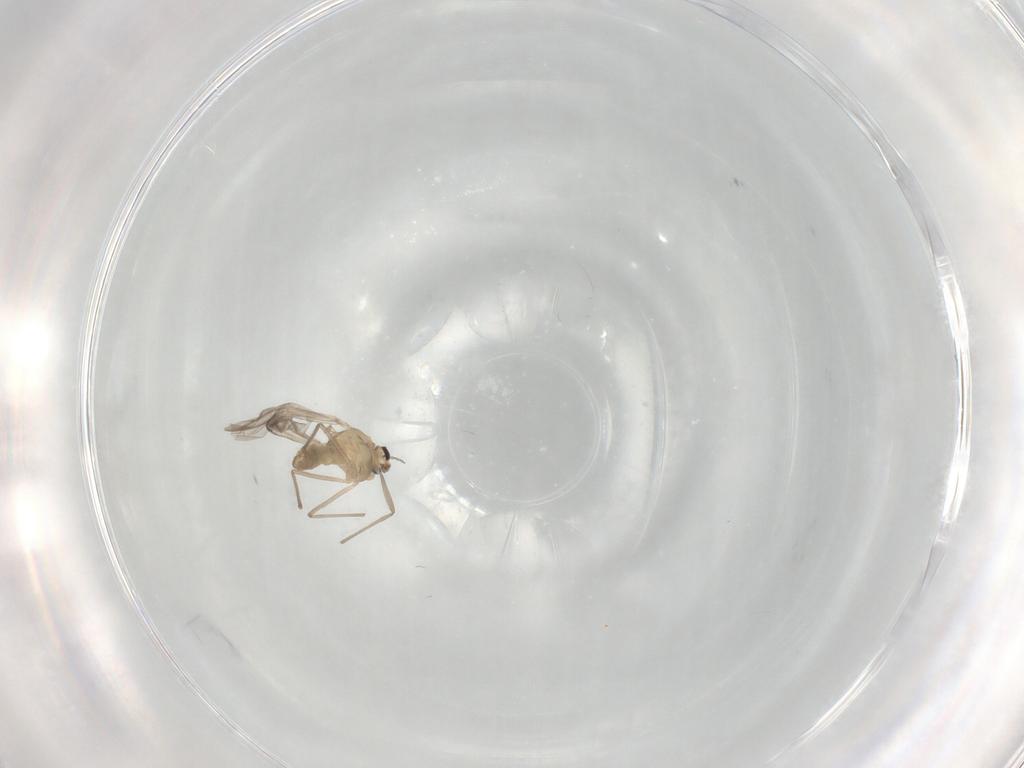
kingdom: Animalia
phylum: Arthropoda
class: Insecta
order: Diptera
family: Chironomidae
